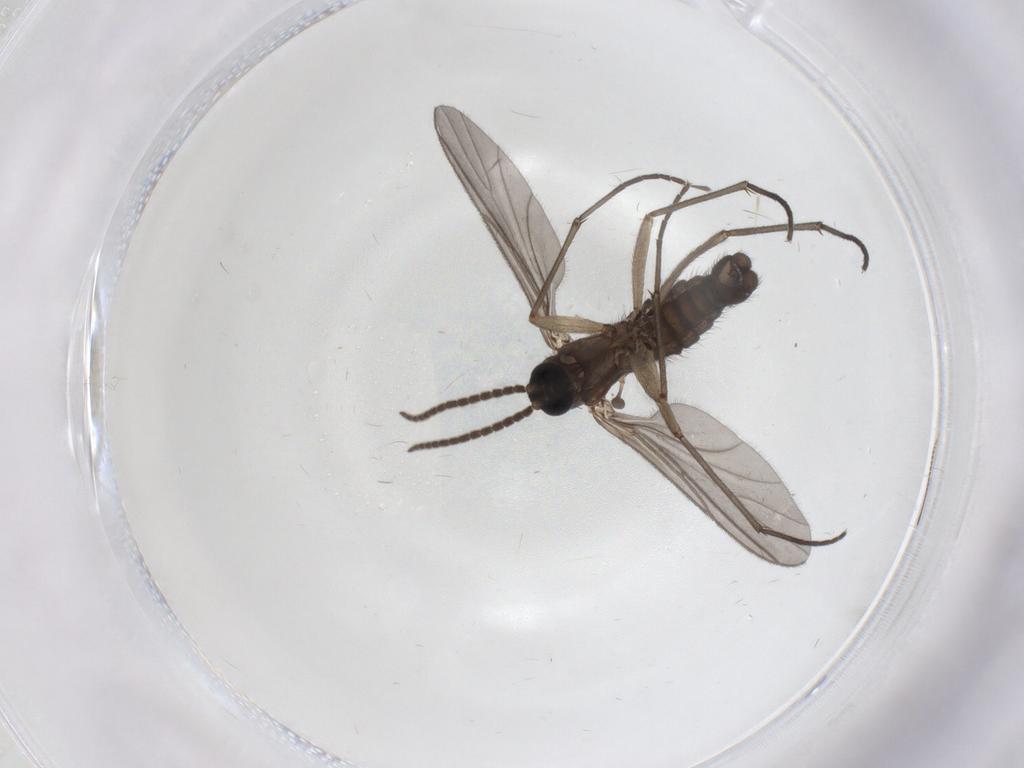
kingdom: Animalia
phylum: Arthropoda
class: Insecta
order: Diptera
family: Sciaridae
